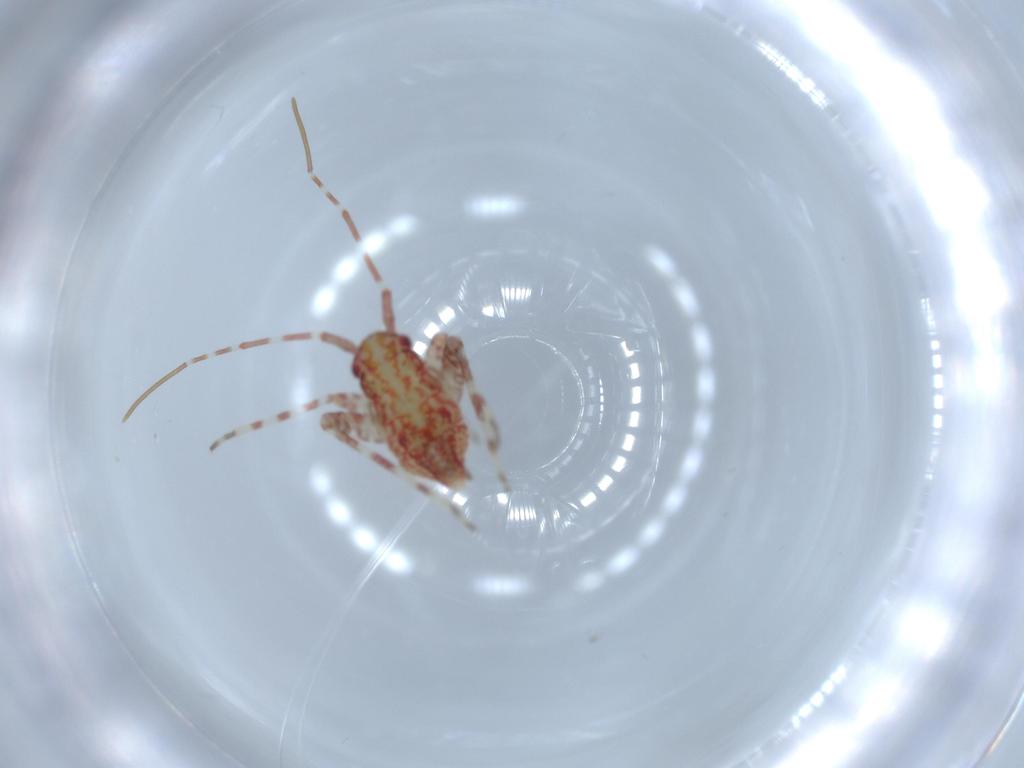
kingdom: Animalia
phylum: Arthropoda
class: Insecta
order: Hemiptera
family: Miridae
